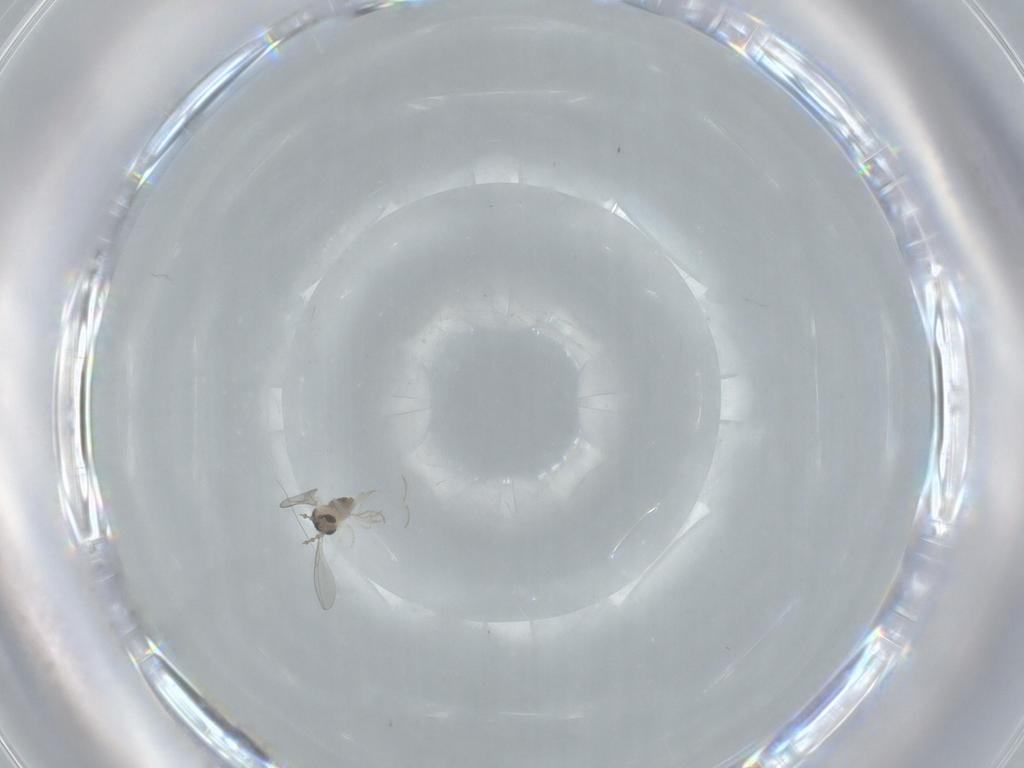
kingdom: Animalia
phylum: Arthropoda
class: Insecta
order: Diptera
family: Cecidomyiidae
